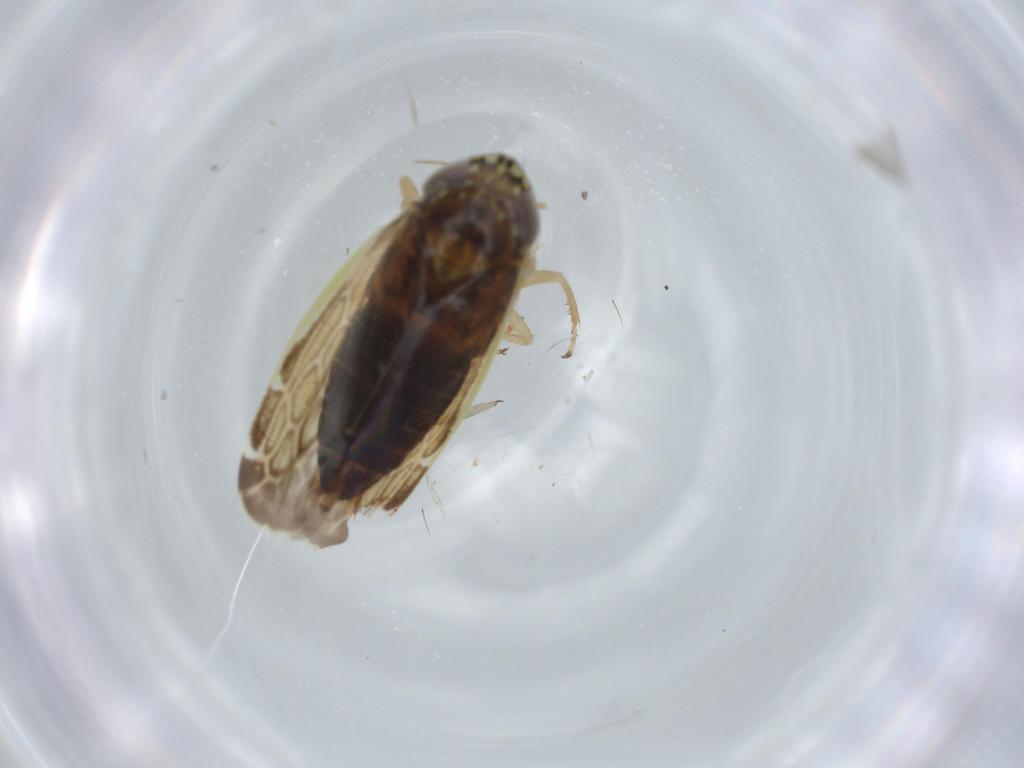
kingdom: Animalia
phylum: Arthropoda
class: Insecta
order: Hemiptera
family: Cicadellidae
